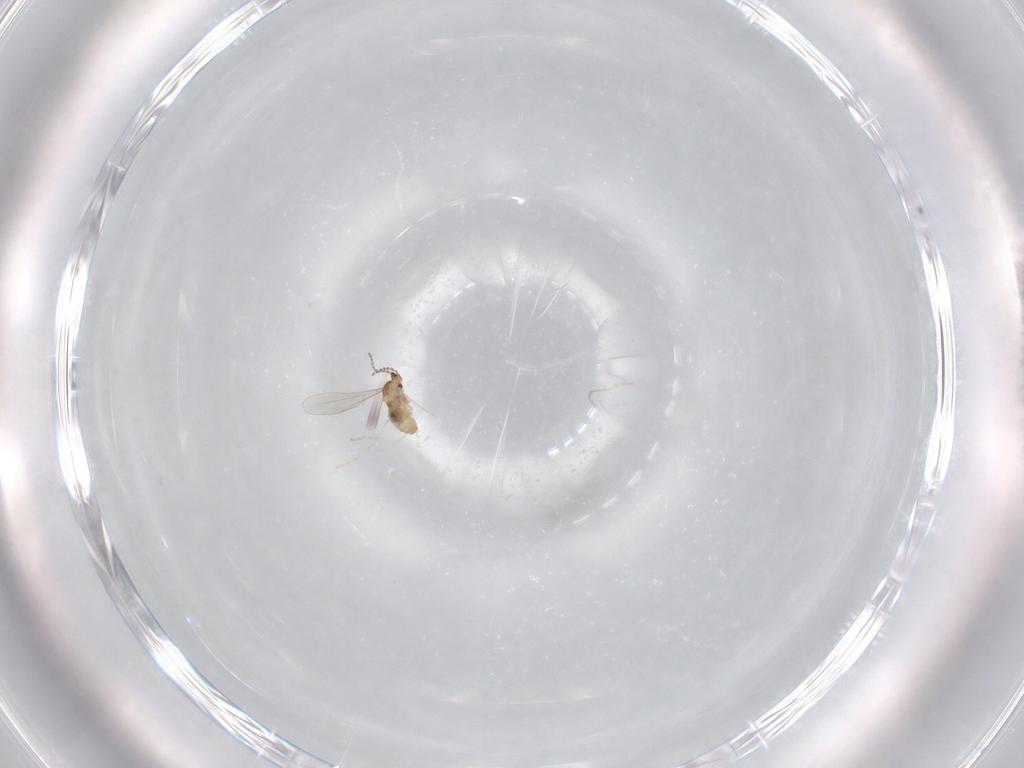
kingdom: Animalia
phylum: Arthropoda
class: Insecta
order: Diptera
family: Cecidomyiidae
